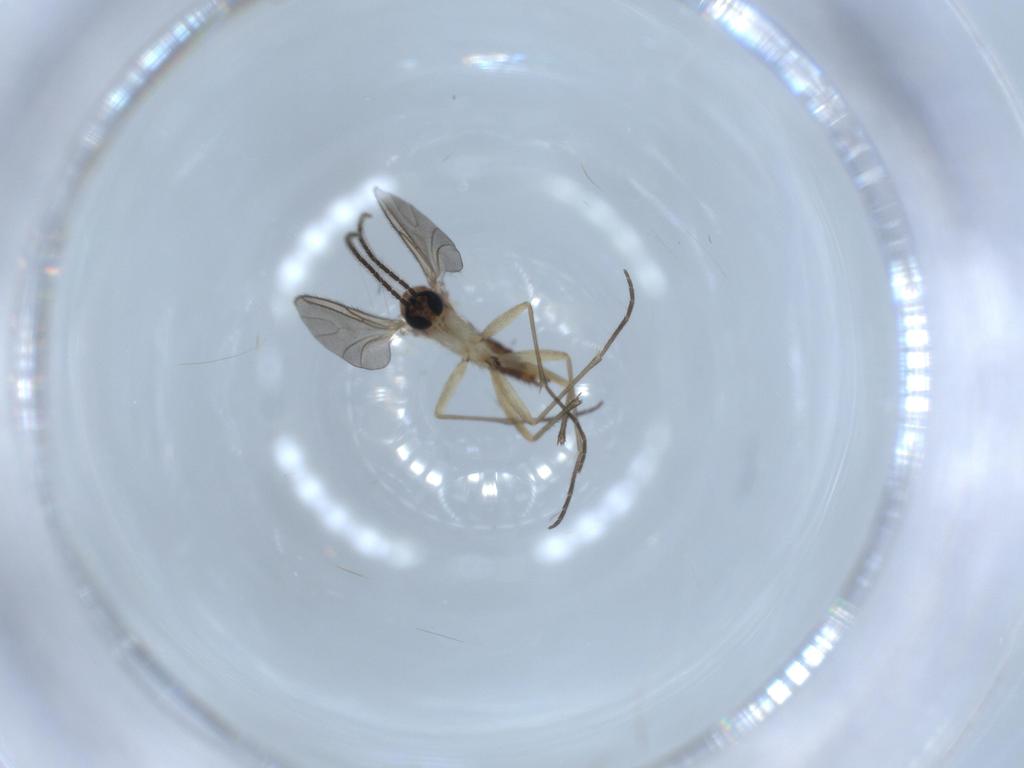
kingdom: Animalia
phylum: Arthropoda
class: Insecta
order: Diptera
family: Sciaridae
